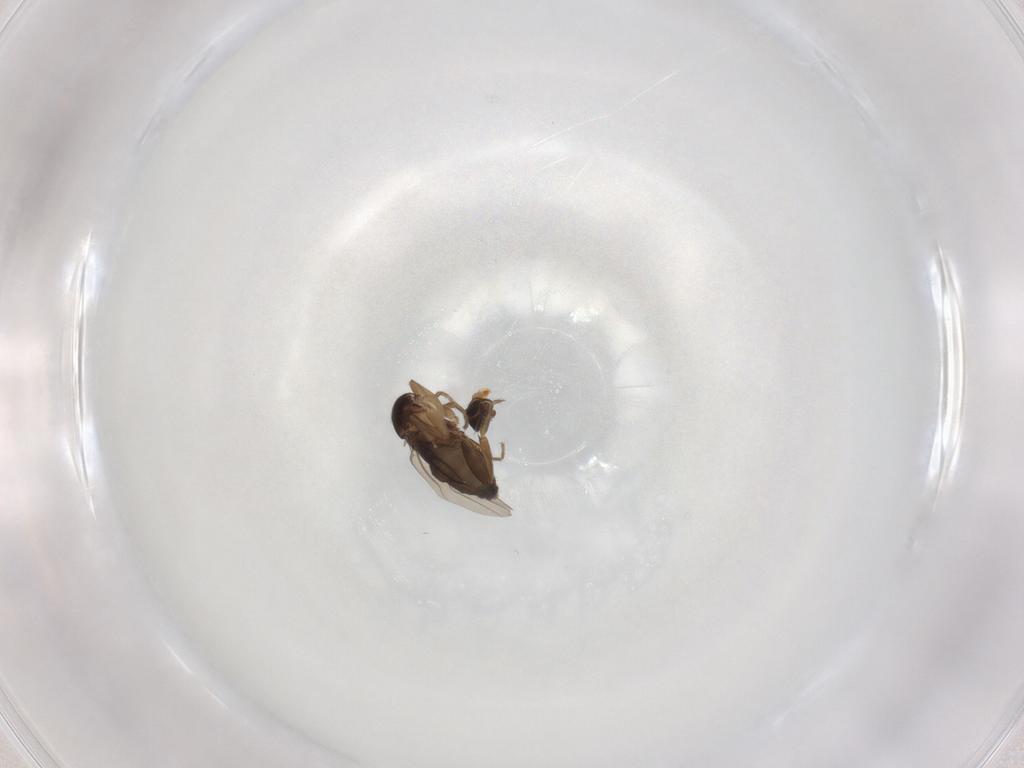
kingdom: Animalia
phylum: Arthropoda
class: Insecta
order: Diptera
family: Phoridae
